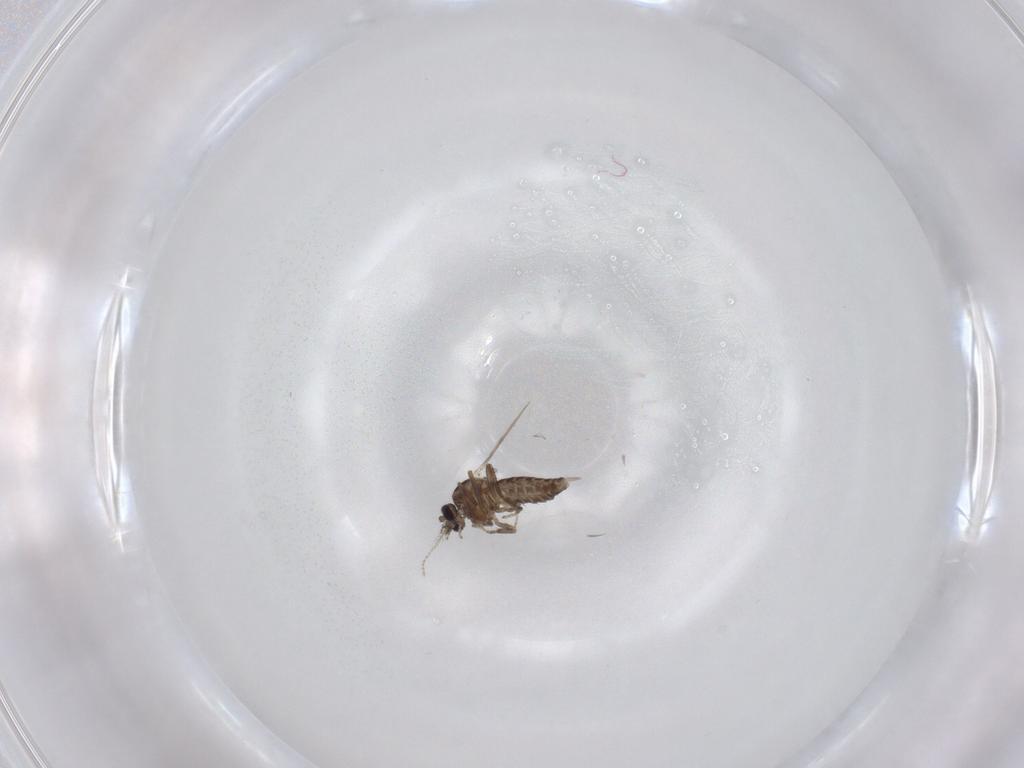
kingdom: Animalia
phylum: Arthropoda
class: Insecta
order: Diptera
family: Ceratopogonidae
